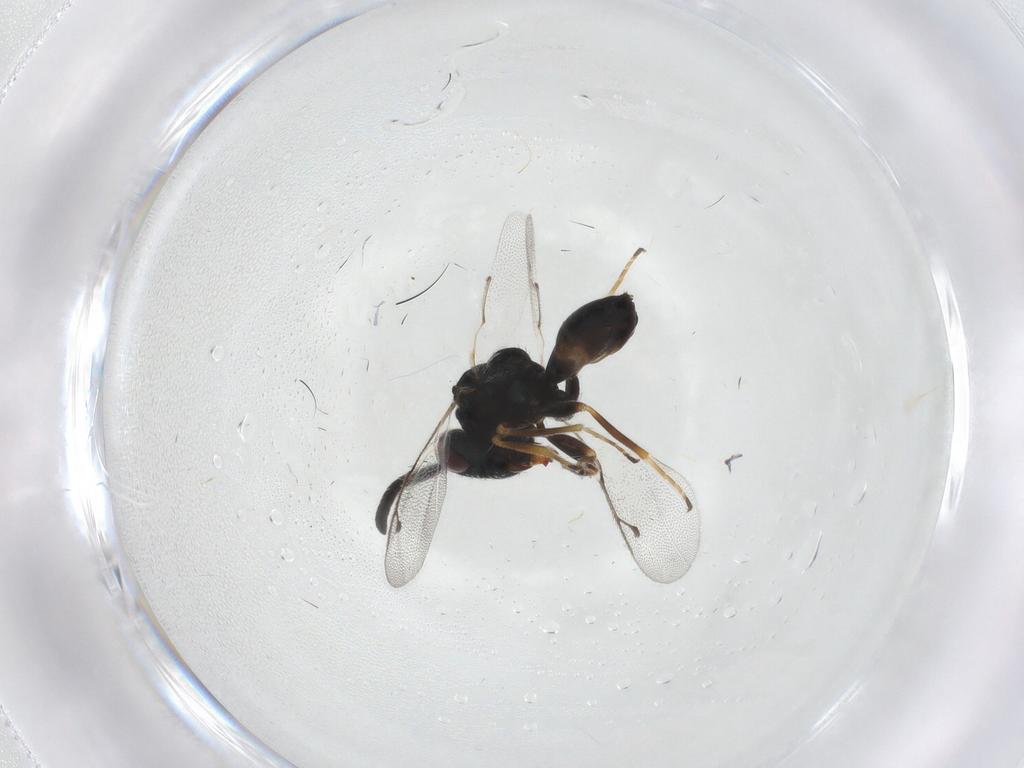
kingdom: Animalia
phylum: Arthropoda
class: Insecta
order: Hymenoptera
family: Pteromalidae
